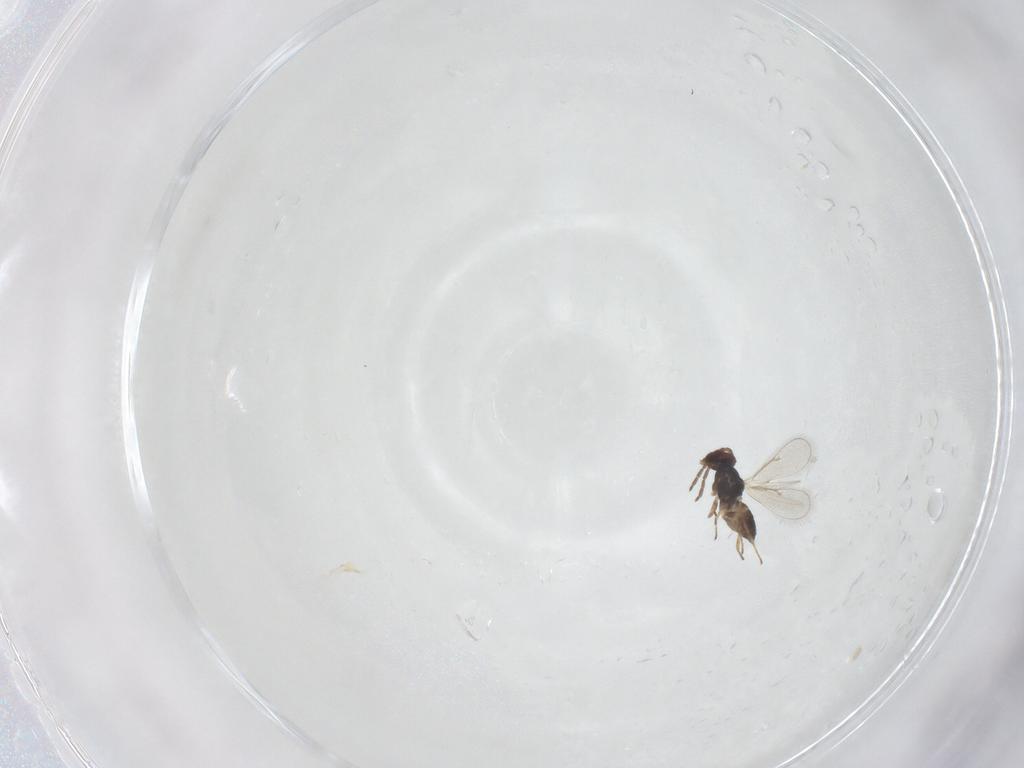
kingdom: Animalia
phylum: Arthropoda
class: Insecta
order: Hymenoptera
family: Eulophidae
